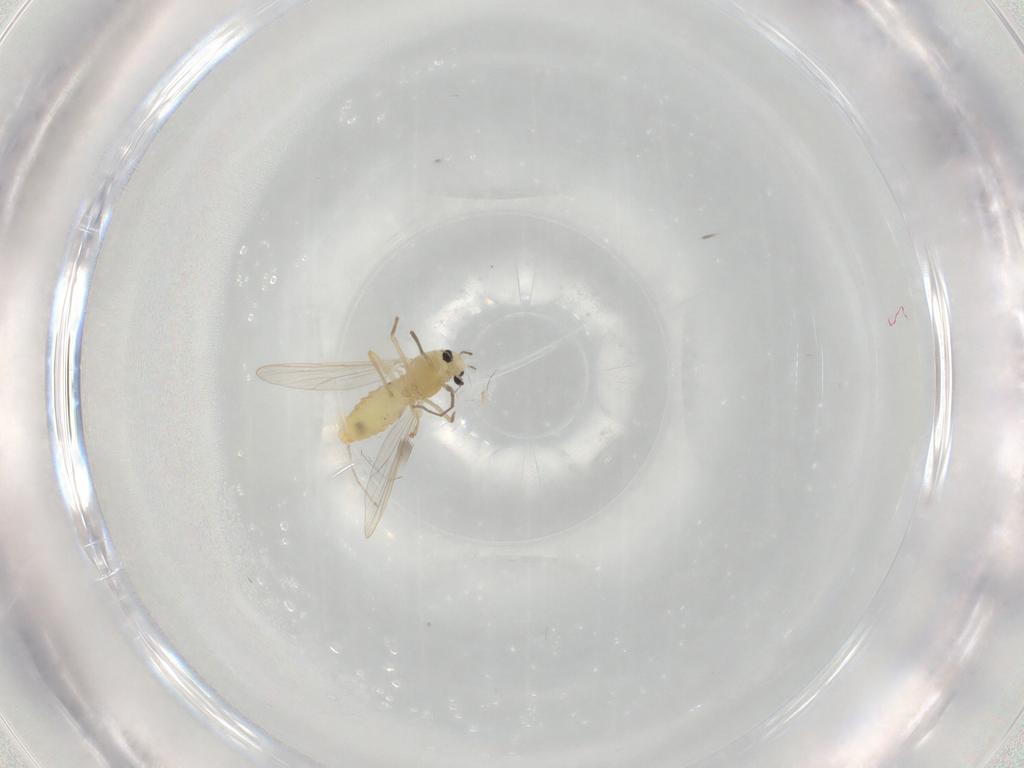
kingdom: Animalia
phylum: Arthropoda
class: Insecta
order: Diptera
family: Chironomidae
